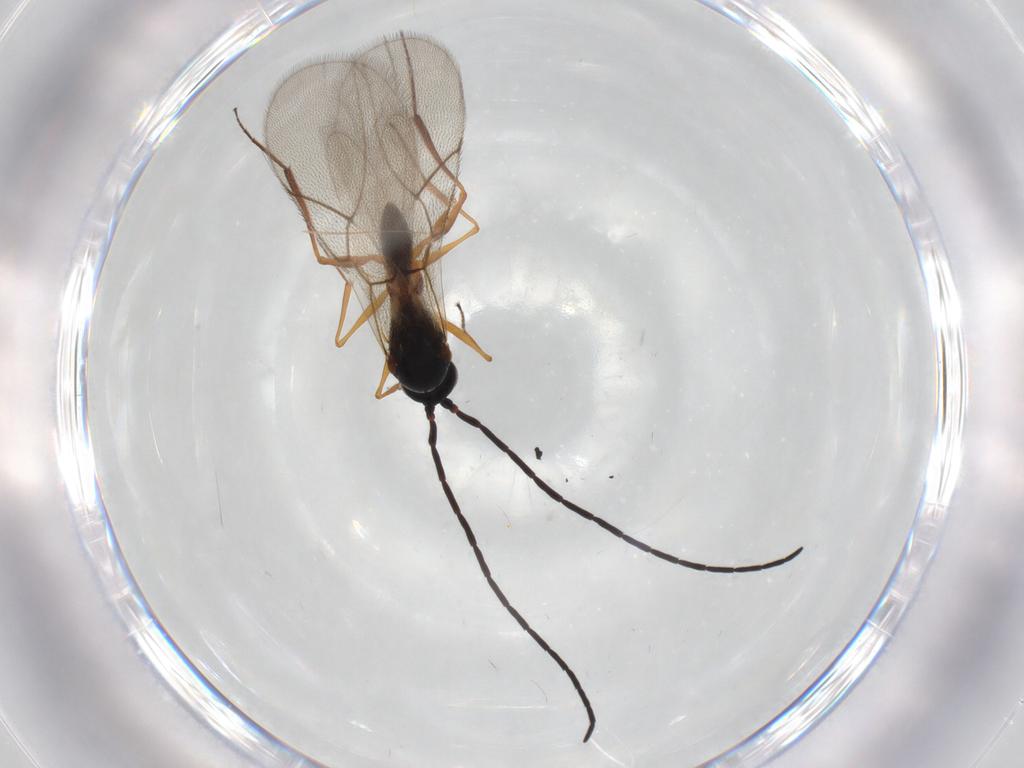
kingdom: Animalia
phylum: Arthropoda
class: Insecta
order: Hymenoptera
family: Figitidae
